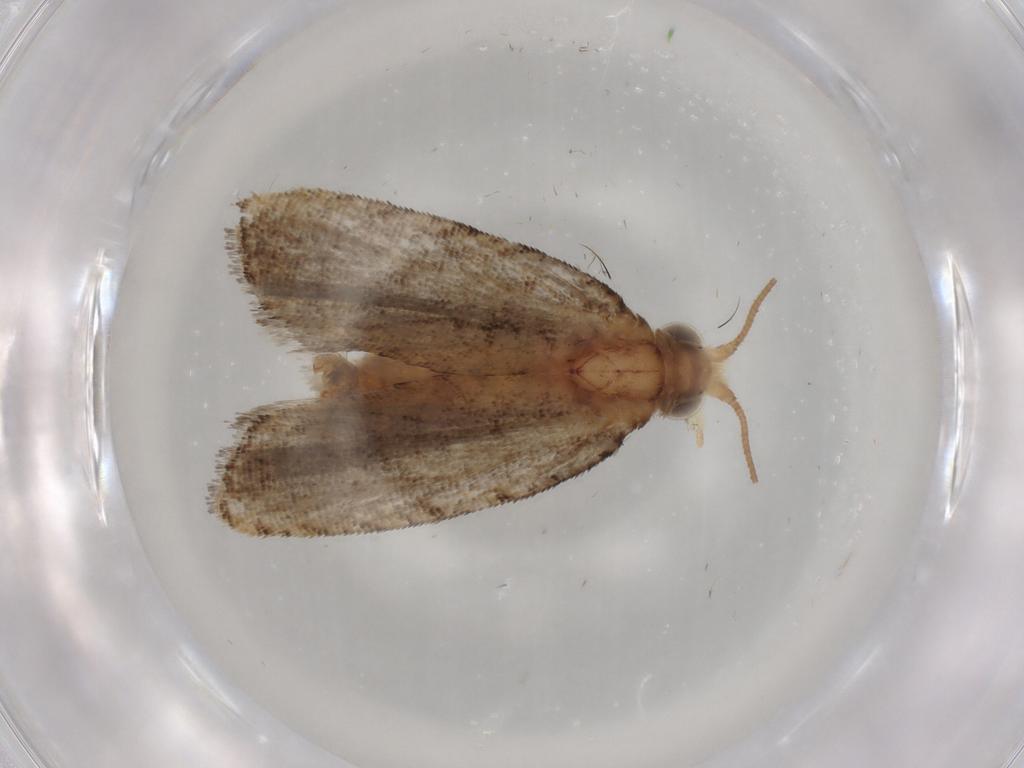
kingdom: Animalia
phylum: Arthropoda
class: Insecta
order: Lepidoptera
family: Tortricidae
